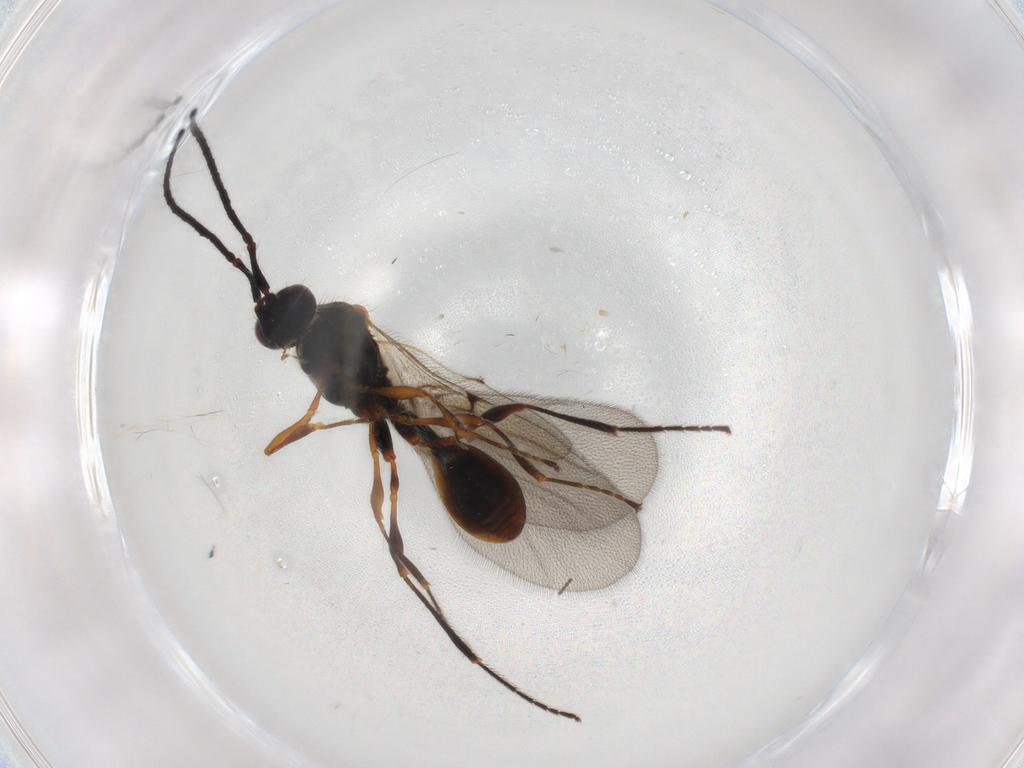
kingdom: Animalia
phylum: Arthropoda
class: Insecta
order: Hymenoptera
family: Diapriidae
